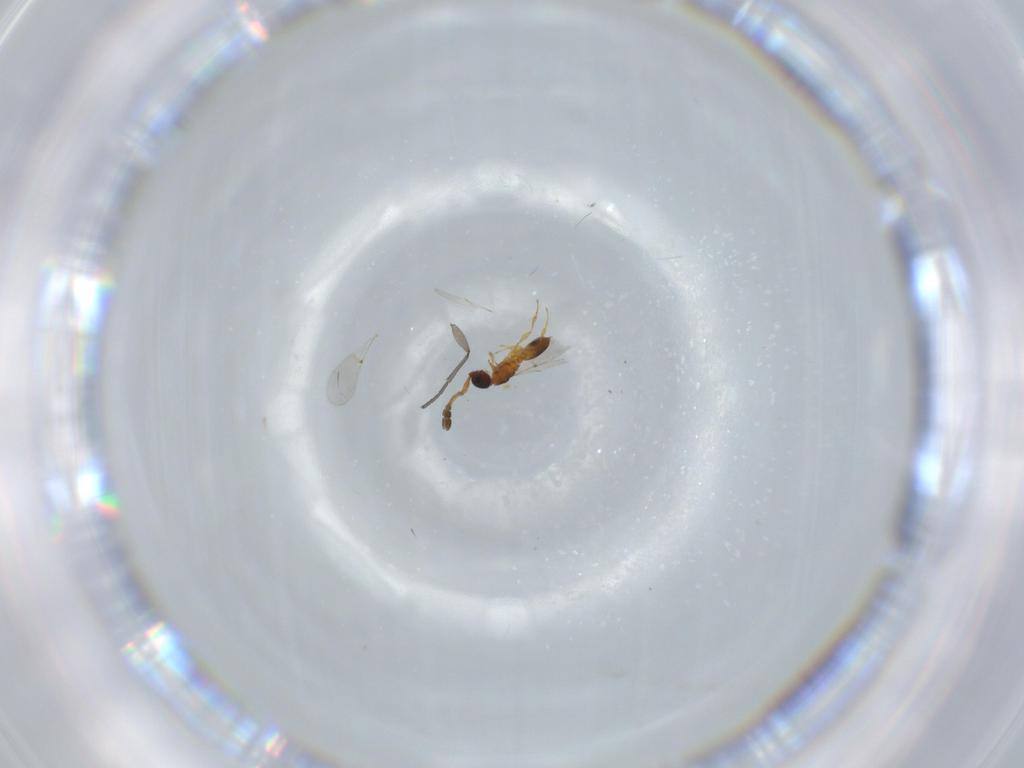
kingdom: Animalia
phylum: Arthropoda
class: Insecta
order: Hymenoptera
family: Diapriidae
